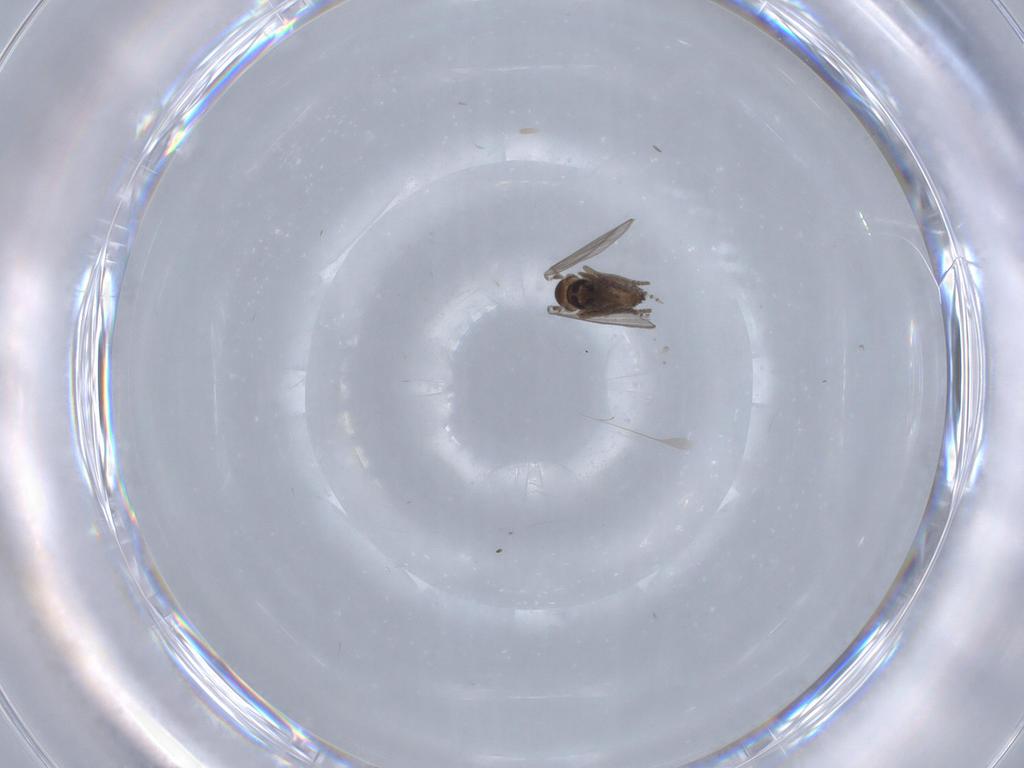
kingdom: Animalia
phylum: Arthropoda
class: Insecta
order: Diptera
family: Psychodidae
